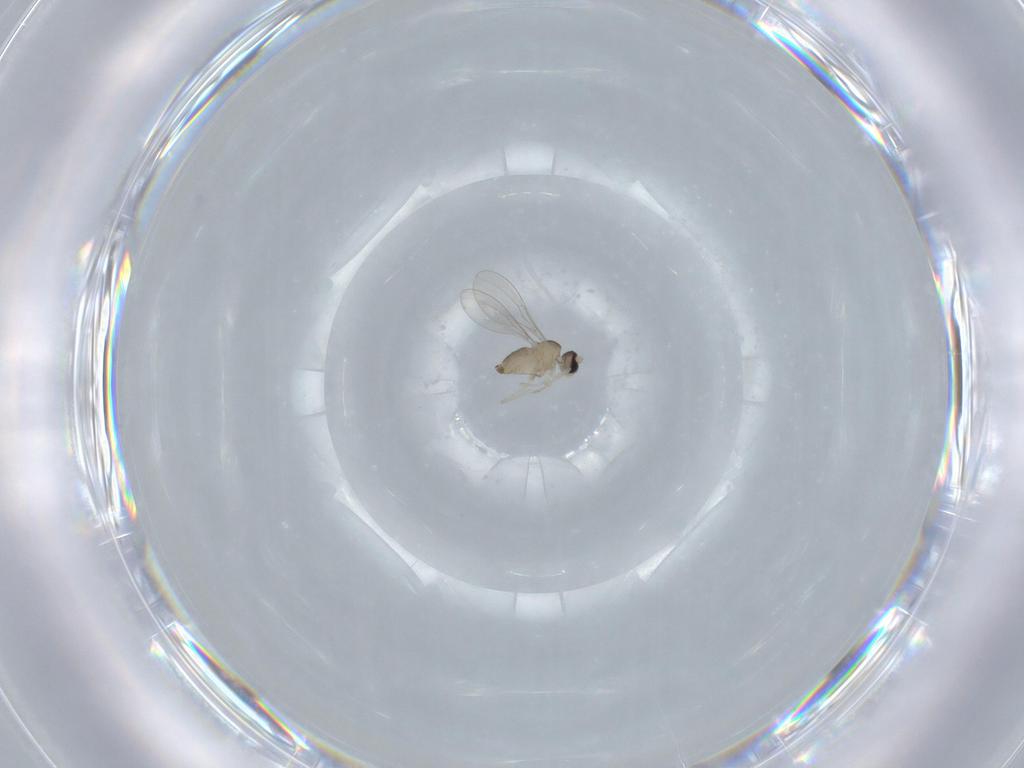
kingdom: Animalia
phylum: Arthropoda
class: Insecta
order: Diptera
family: Cecidomyiidae
